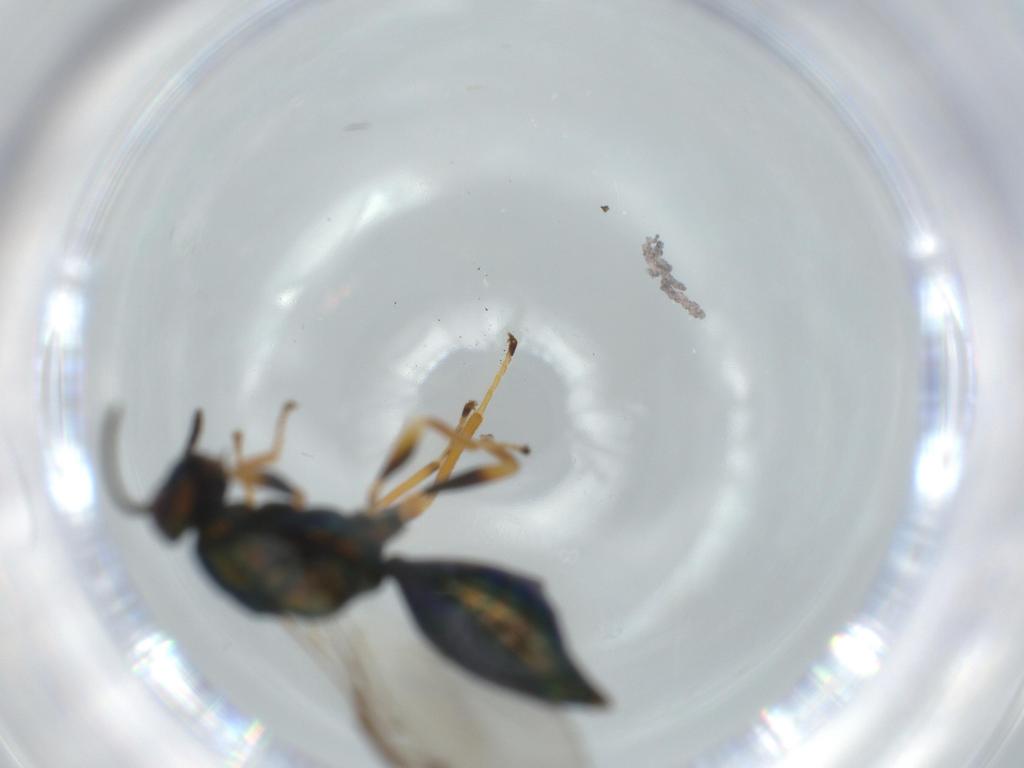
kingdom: Animalia
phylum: Arthropoda
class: Insecta
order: Hymenoptera
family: Pteromalidae
